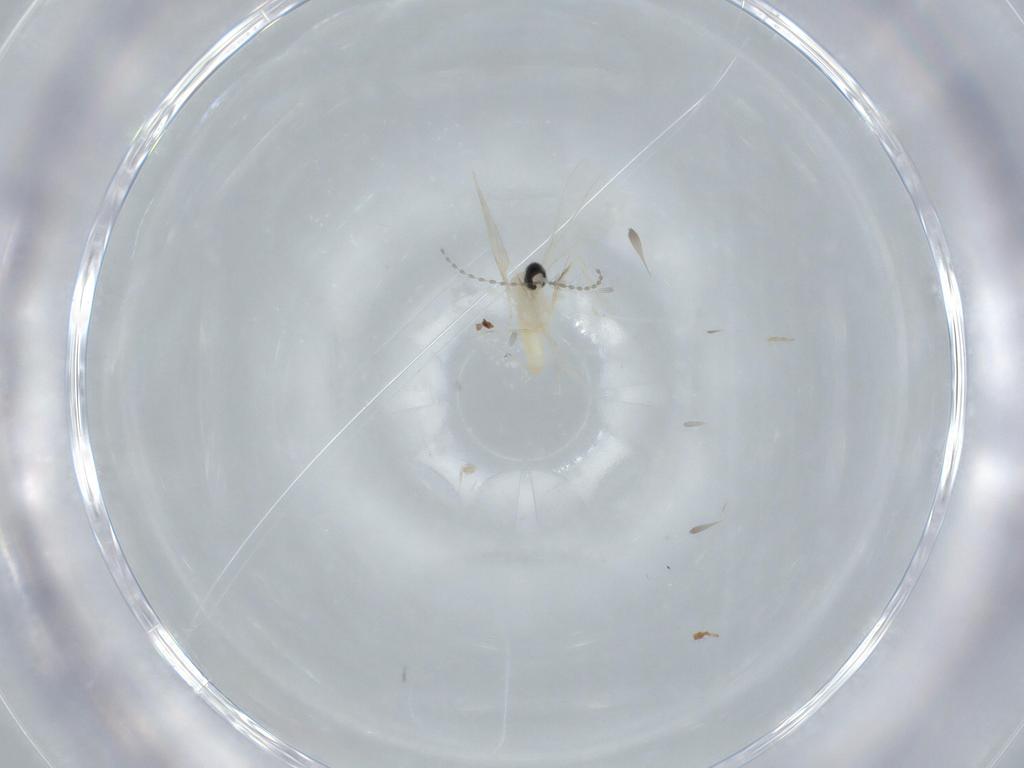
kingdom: Animalia
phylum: Arthropoda
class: Insecta
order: Diptera
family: Cecidomyiidae
